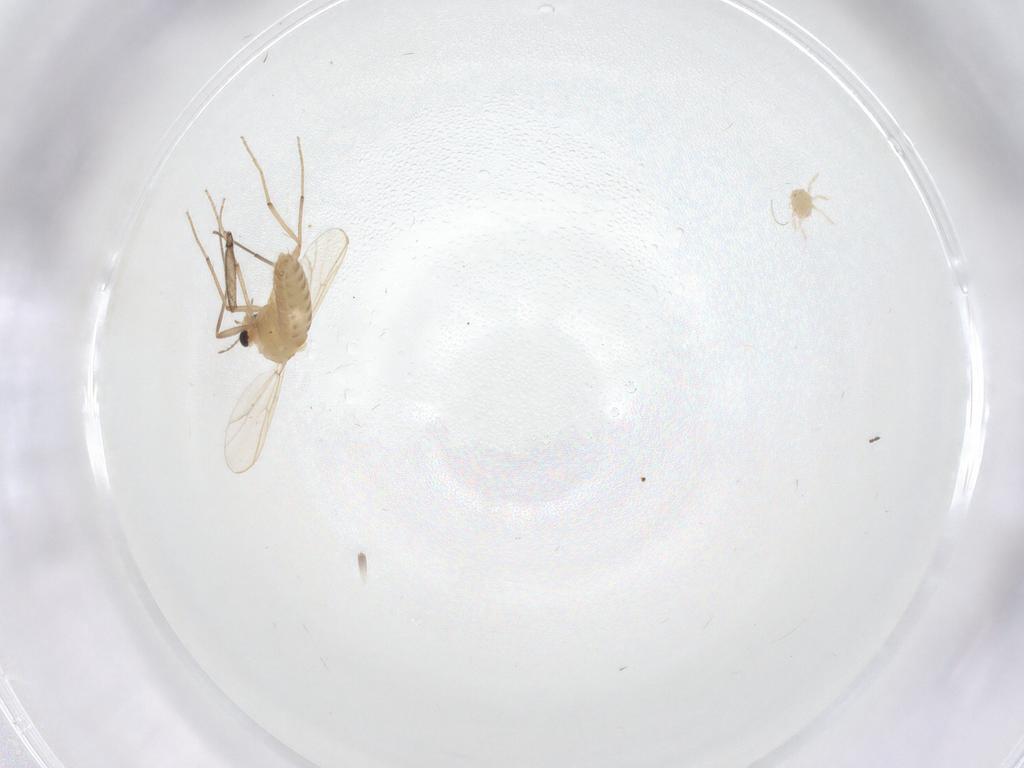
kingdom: Animalia
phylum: Arthropoda
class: Insecta
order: Diptera
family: Chironomidae
